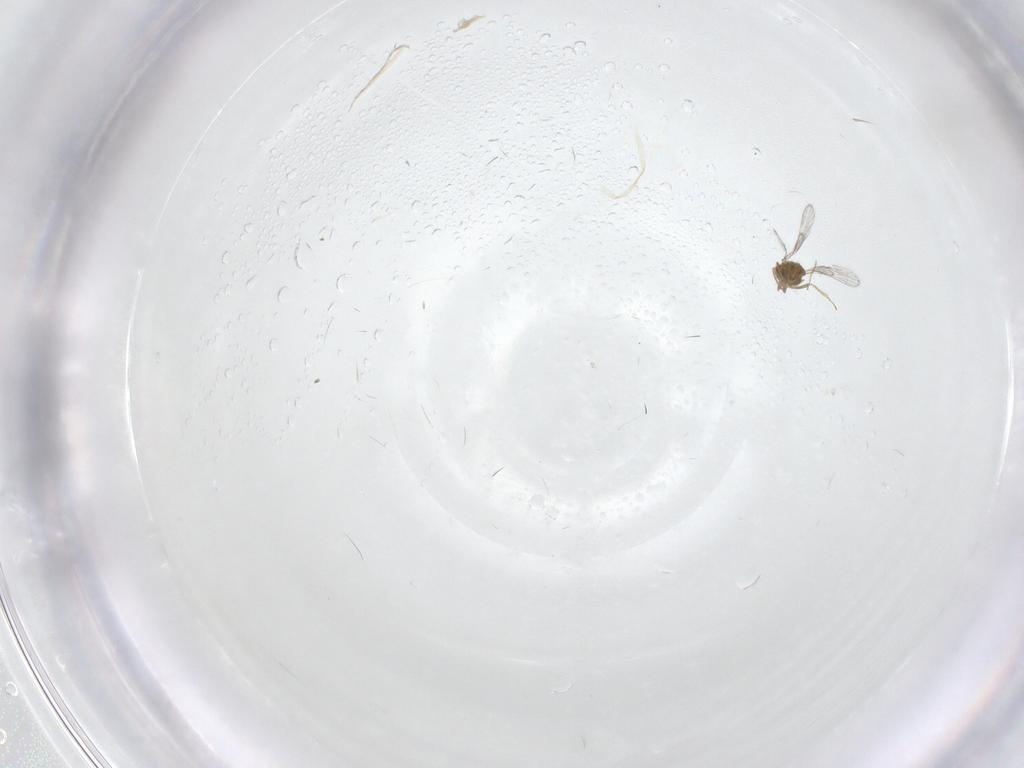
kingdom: Animalia
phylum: Arthropoda
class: Insecta
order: Hymenoptera
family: Trichogrammatidae
